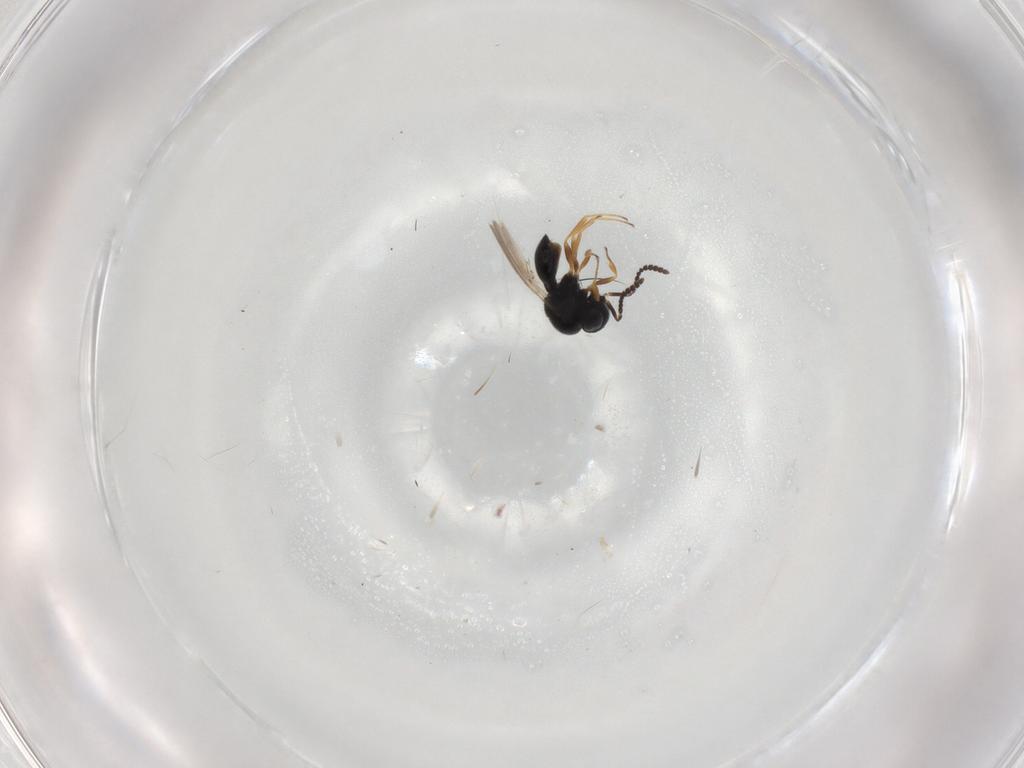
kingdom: Animalia
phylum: Arthropoda
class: Insecta
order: Hymenoptera
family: Scelionidae
